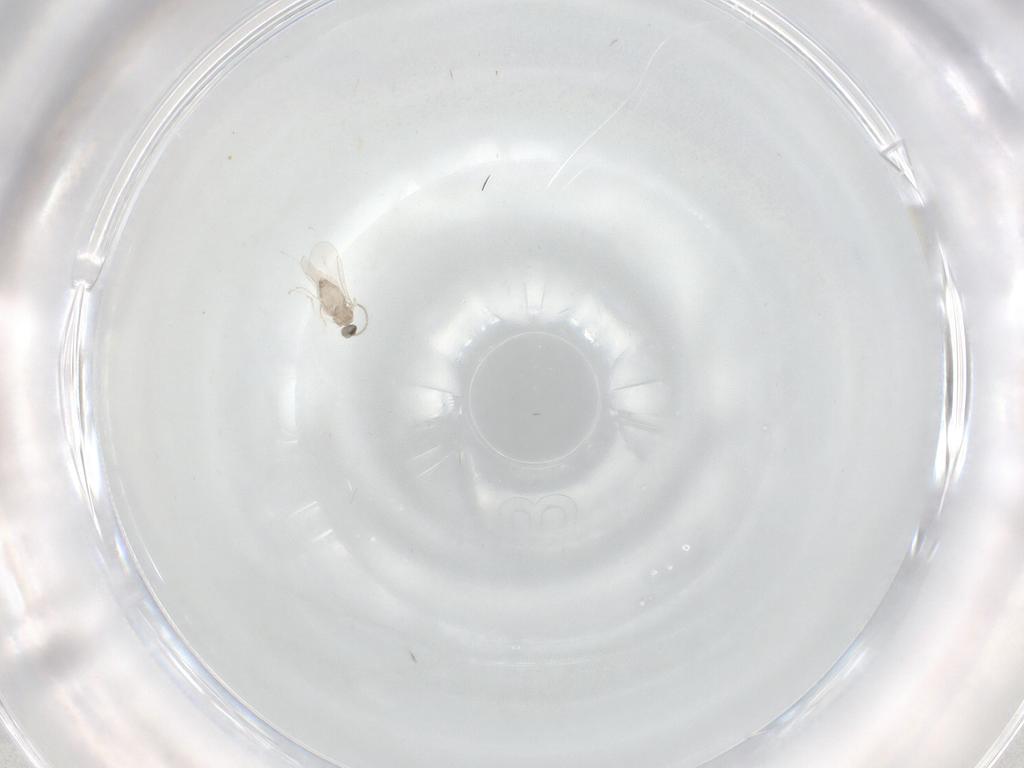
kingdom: Animalia
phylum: Arthropoda
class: Insecta
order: Diptera
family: Cecidomyiidae
